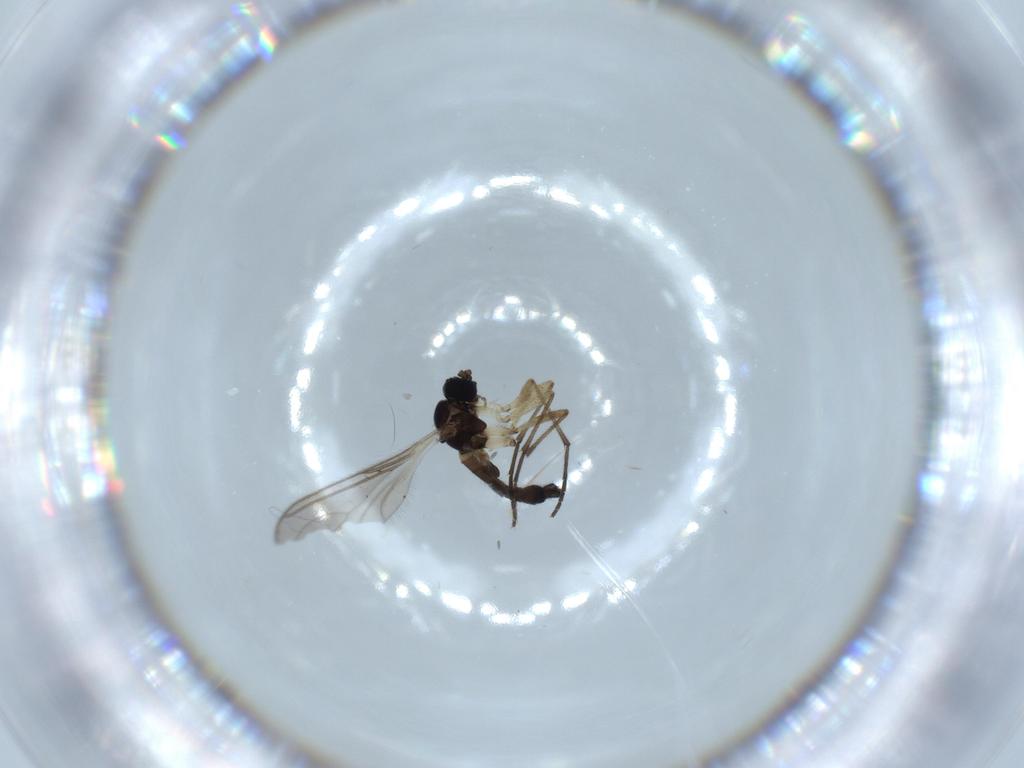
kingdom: Animalia
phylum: Arthropoda
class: Insecta
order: Diptera
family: Sciaridae
